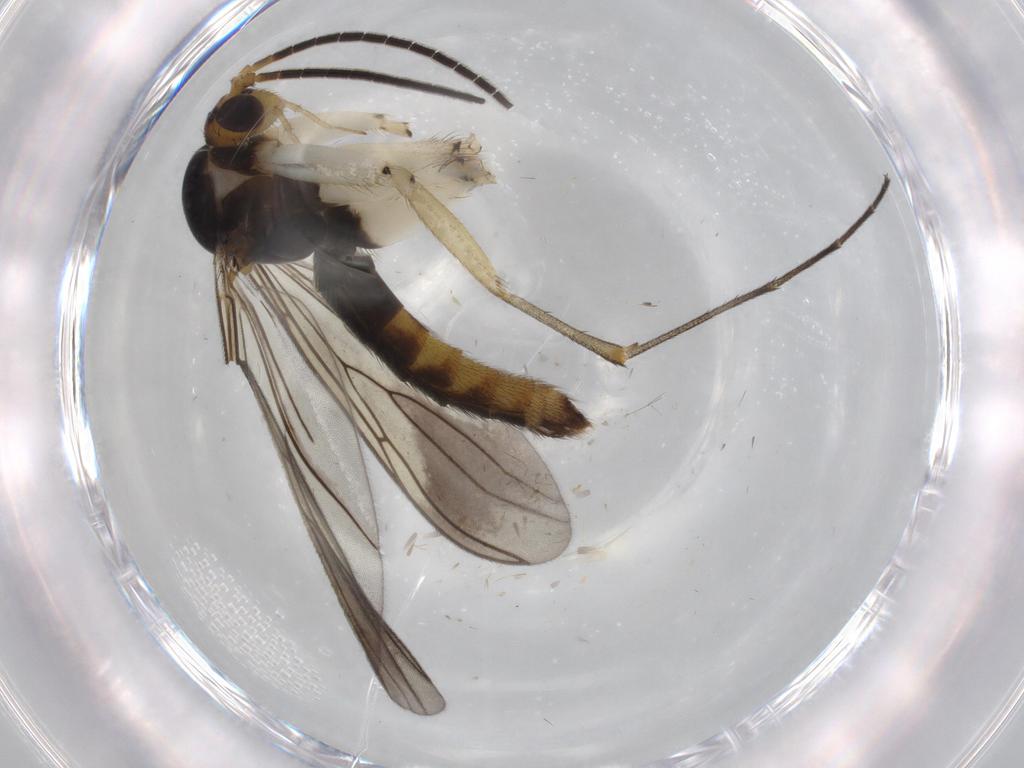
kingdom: Animalia
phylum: Arthropoda
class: Insecta
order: Diptera
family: Mycetophilidae
